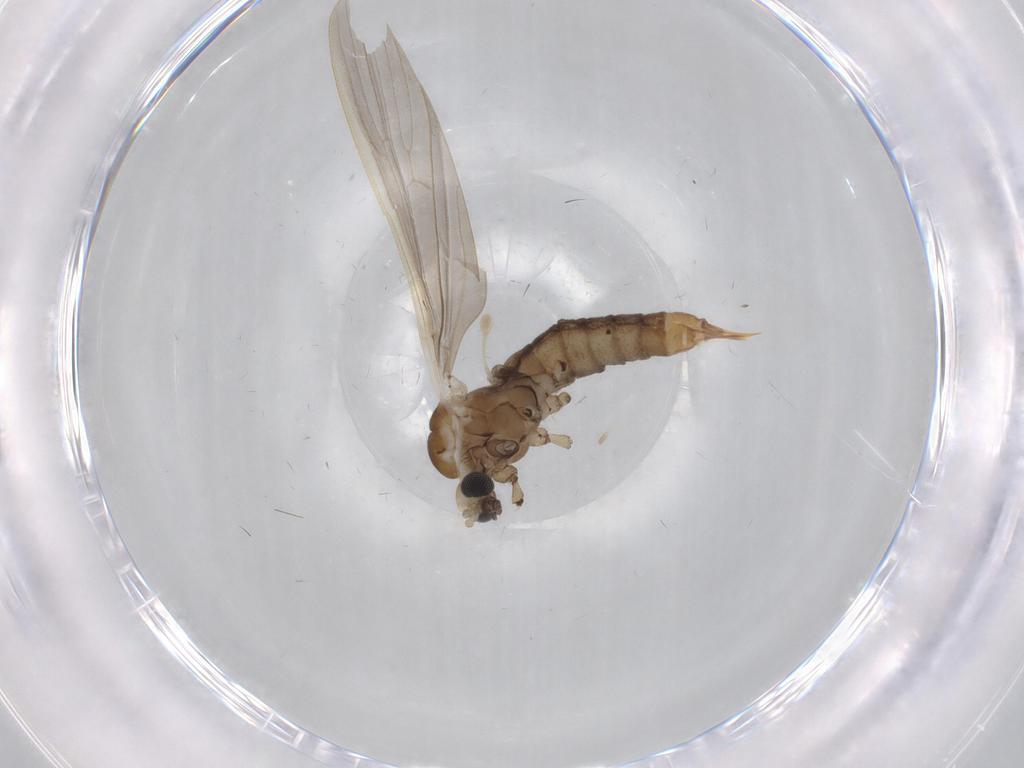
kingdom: Animalia
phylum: Arthropoda
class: Insecta
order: Diptera
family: Limoniidae
